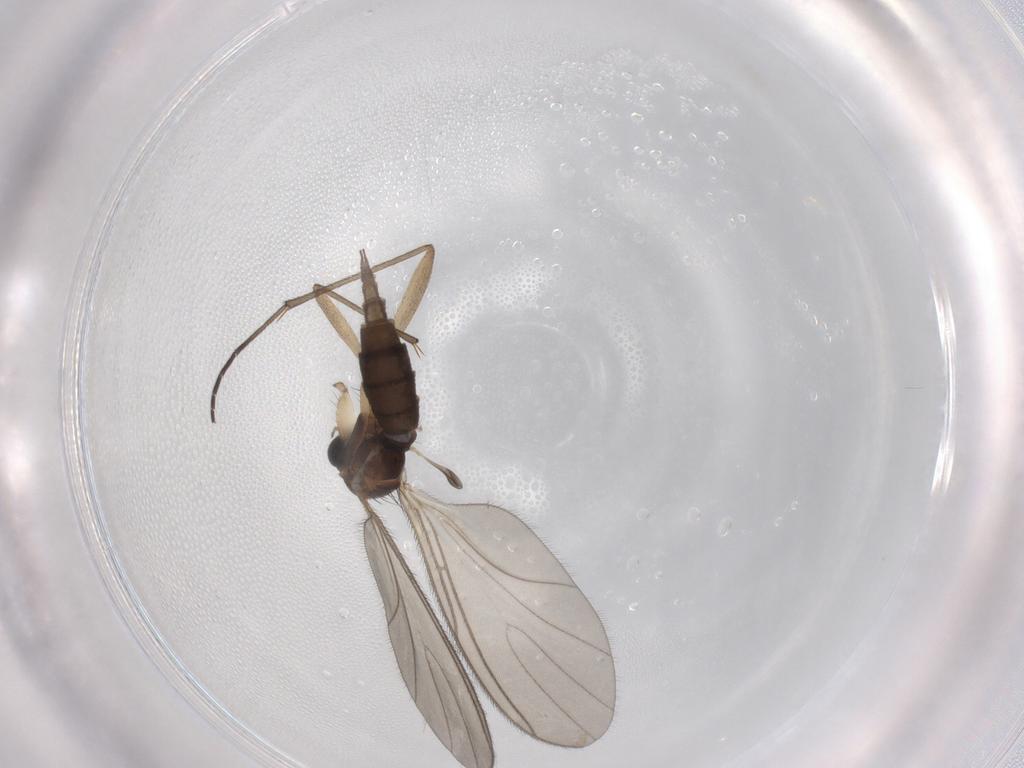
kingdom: Animalia
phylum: Arthropoda
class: Insecta
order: Diptera
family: Sciaridae
